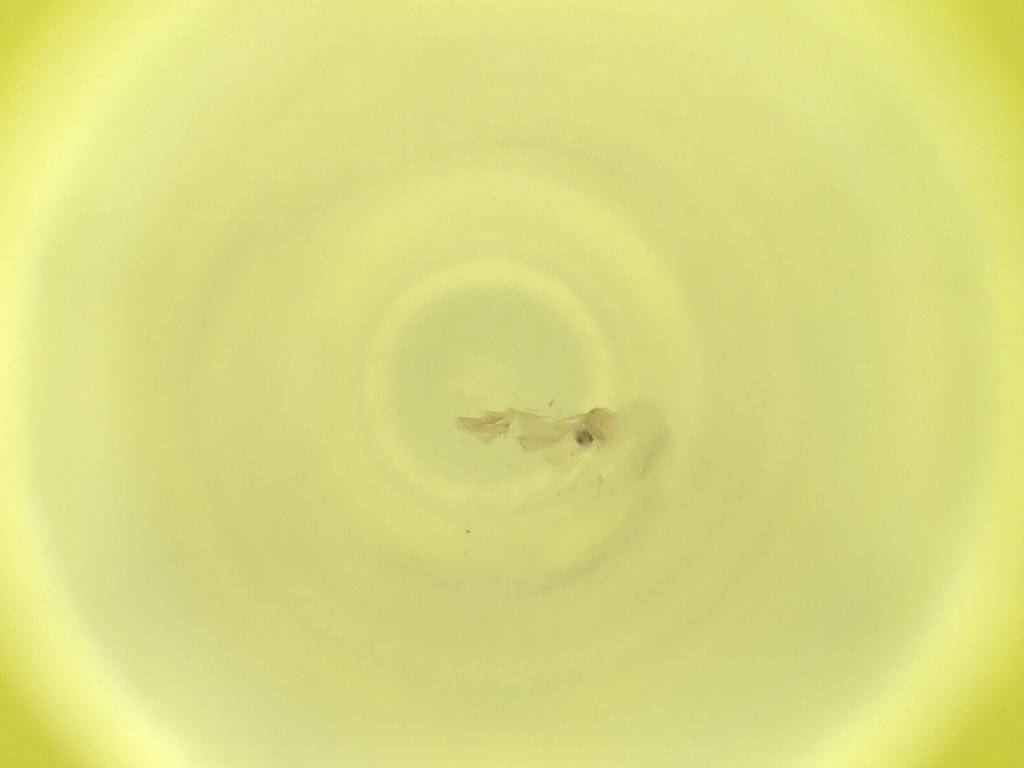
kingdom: Animalia
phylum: Arthropoda
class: Insecta
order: Diptera
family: Cecidomyiidae
